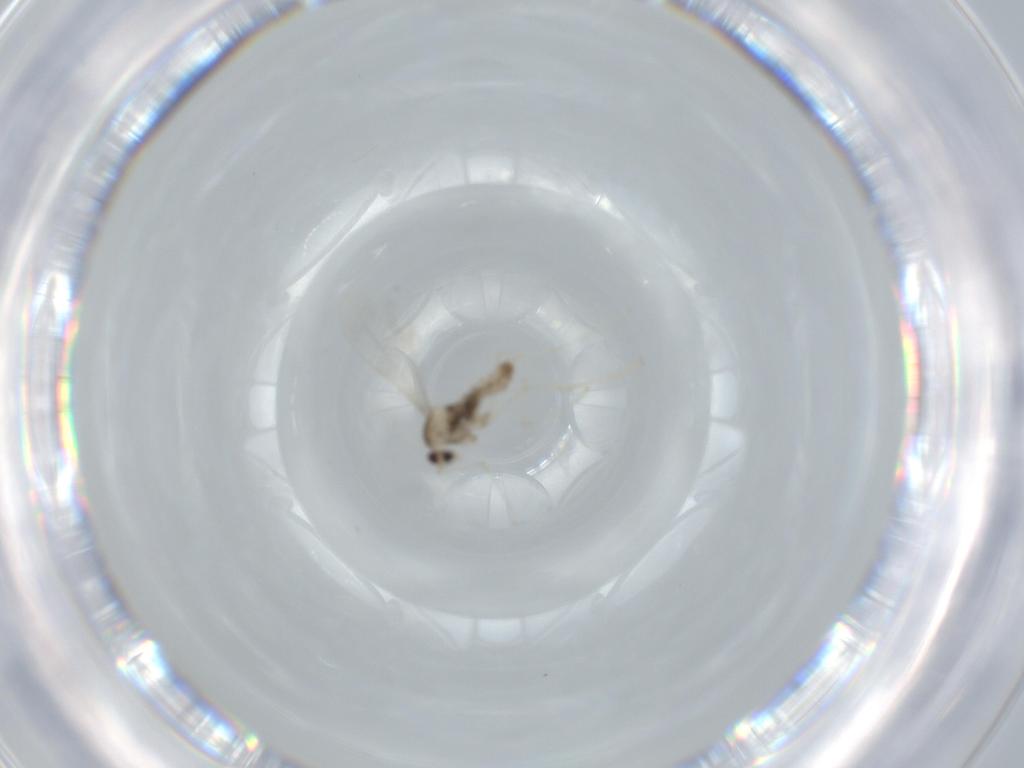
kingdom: Animalia
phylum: Arthropoda
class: Insecta
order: Diptera
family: Cecidomyiidae
